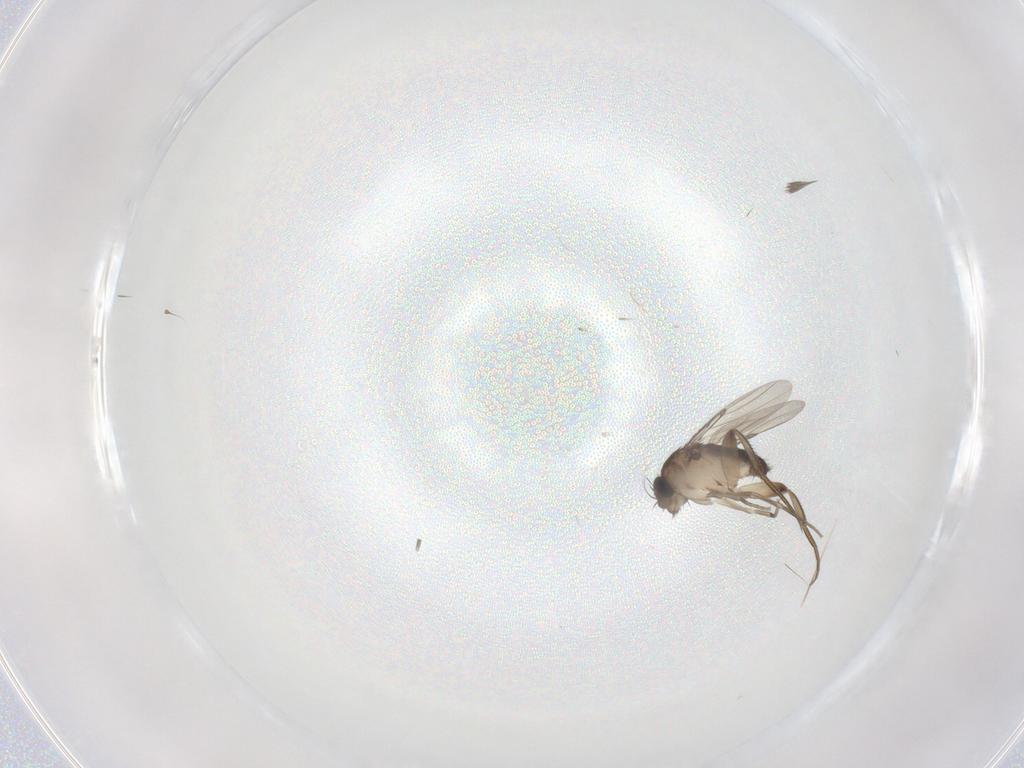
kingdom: Animalia
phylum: Arthropoda
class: Insecta
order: Diptera
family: Phoridae
